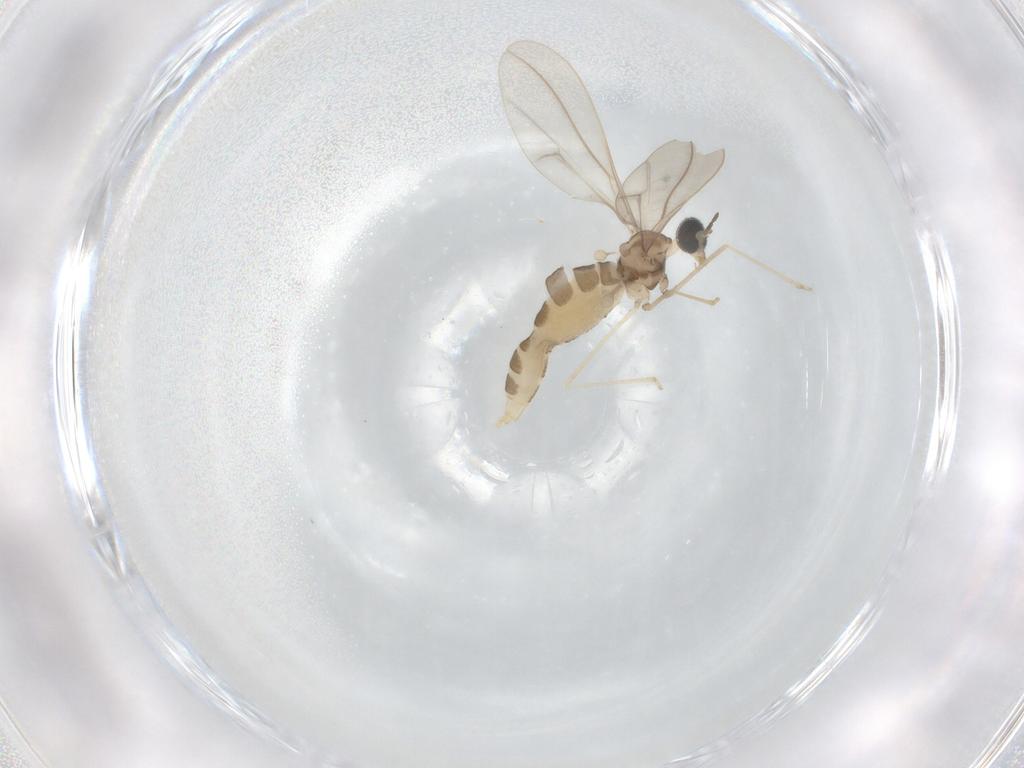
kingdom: Animalia
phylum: Arthropoda
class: Insecta
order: Diptera
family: Cecidomyiidae
